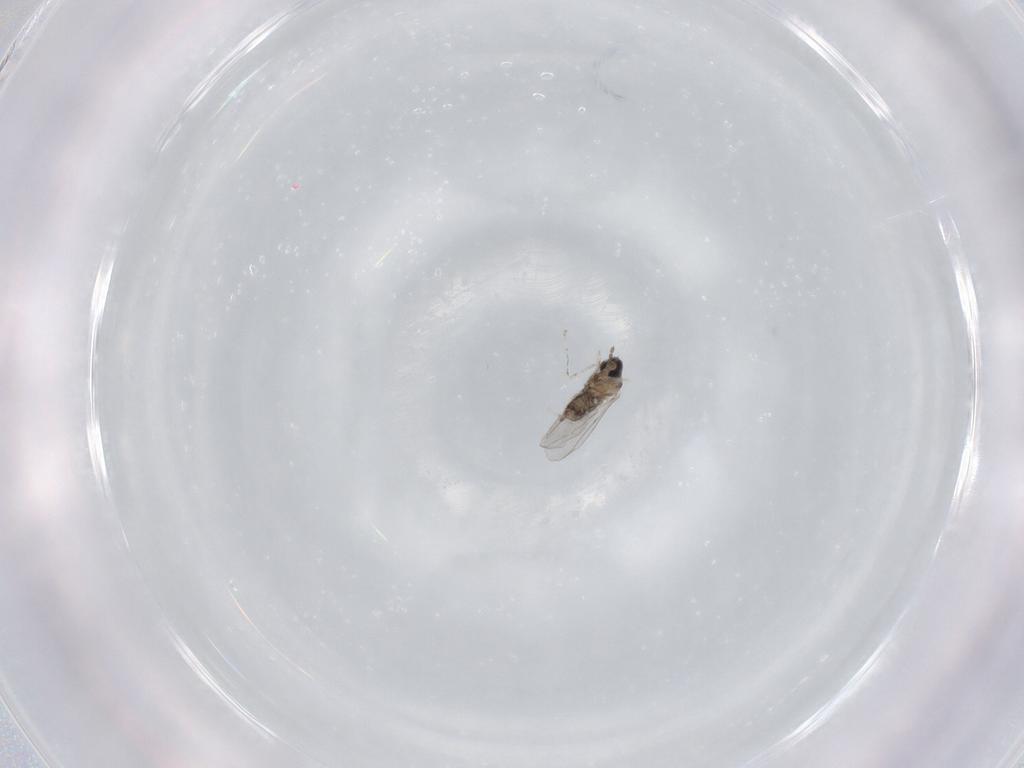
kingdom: Animalia
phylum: Arthropoda
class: Insecta
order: Diptera
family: Cecidomyiidae
